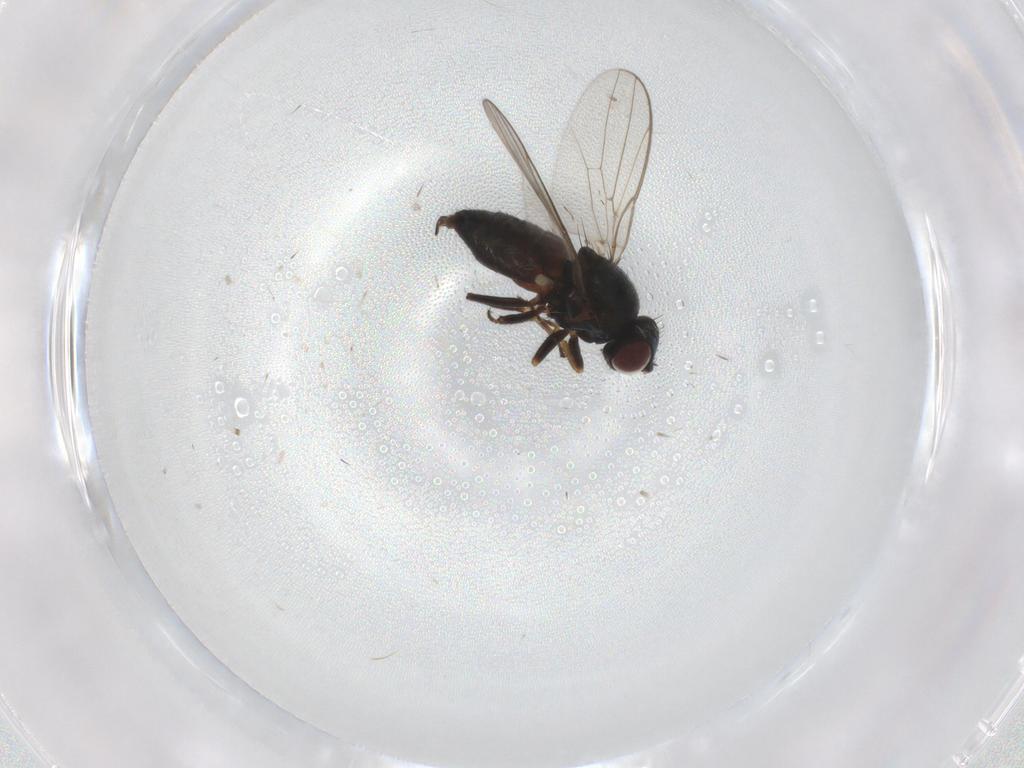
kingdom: Animalia
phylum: Arthropoda
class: Insecta
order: Diptera
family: Chloropidae
